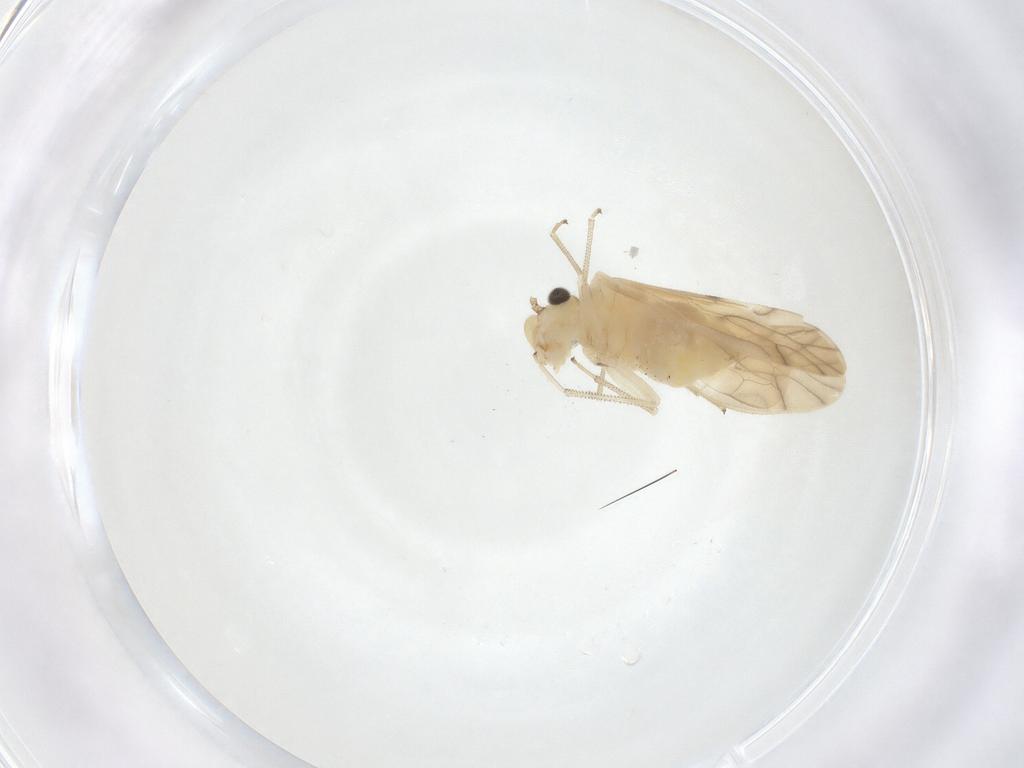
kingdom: Animalia
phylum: Arthropoda
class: Insecta
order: Psocodea
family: Caeciliusidae
